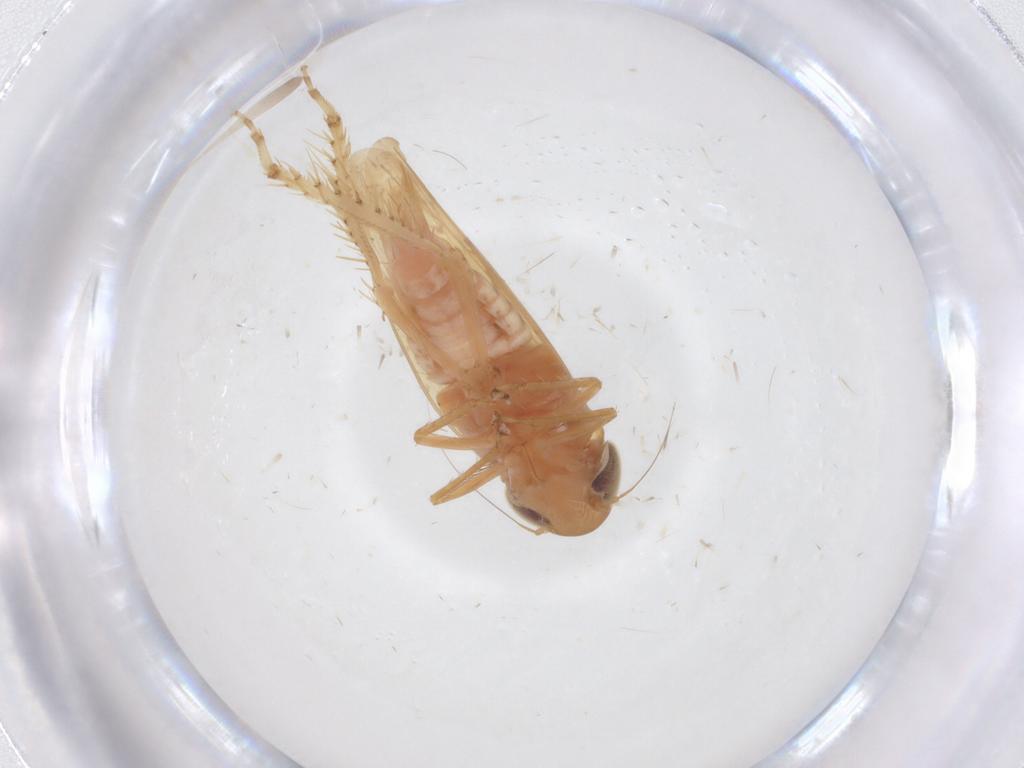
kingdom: Animalia
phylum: Arthropoda
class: Insecta
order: Hemiptera
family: Cicadellidae
